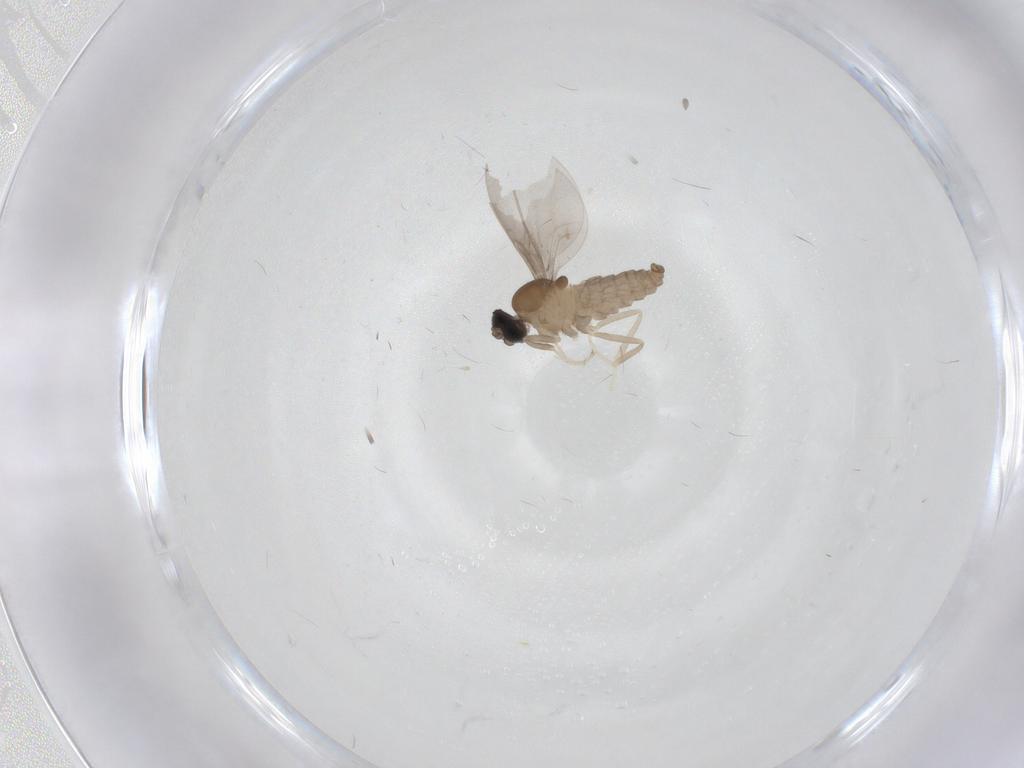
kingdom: Animalia
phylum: Arthropoda
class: Insecta
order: Diptera
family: Cecidomyiidae
